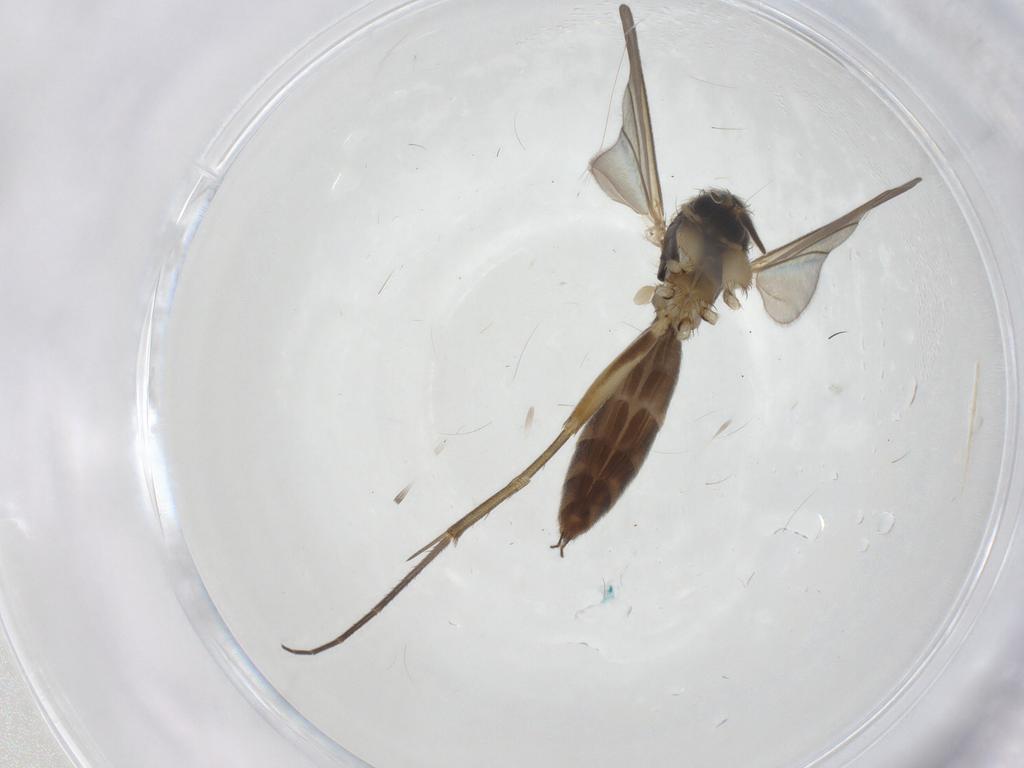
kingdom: Animalia
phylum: Arthropoda
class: Insecta
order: Diptera
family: Mycetophilidae
